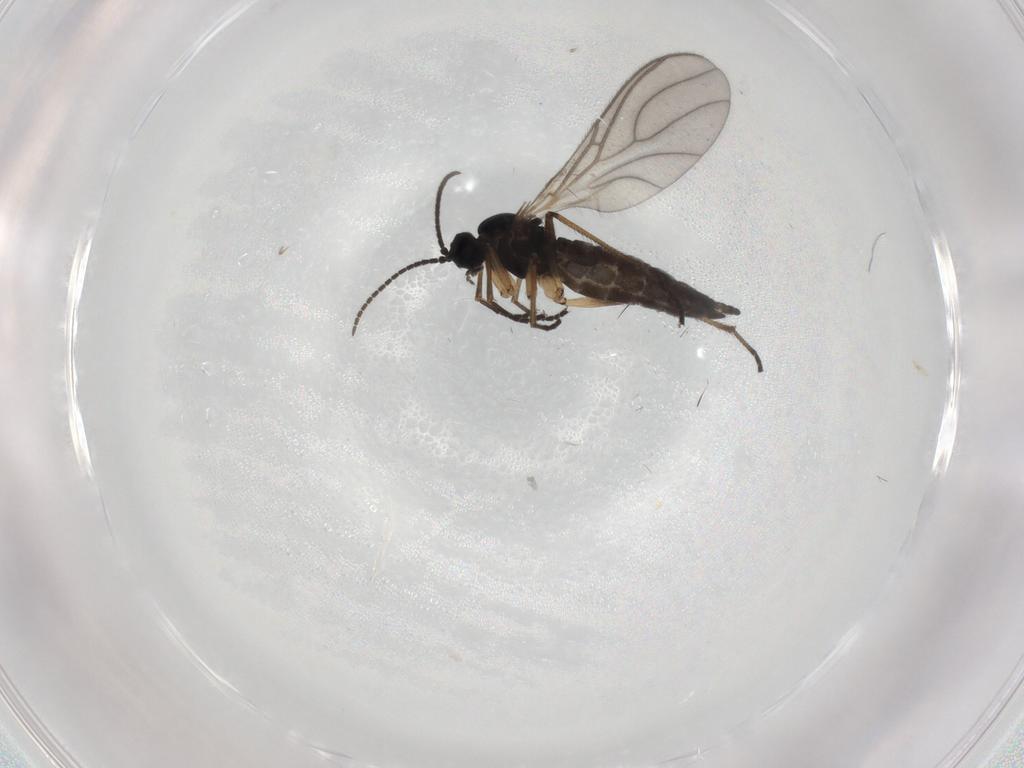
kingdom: Animalia
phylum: Arthropoda
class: Insecta
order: Diptera
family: Sciaridae
